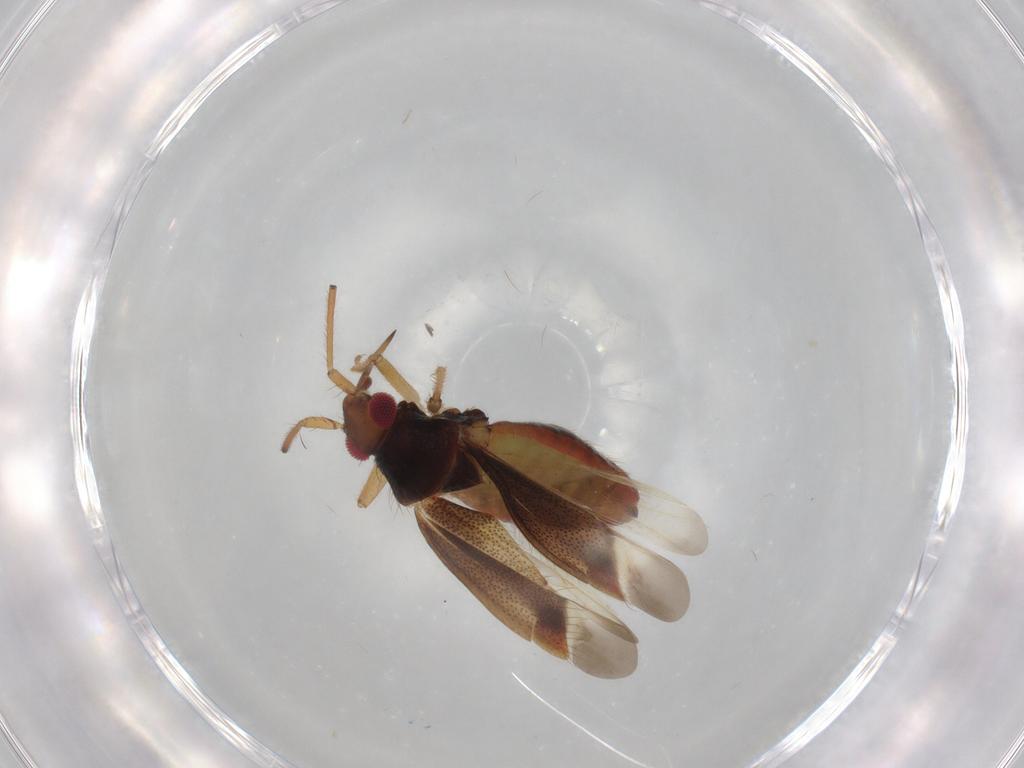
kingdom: Animalia
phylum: Arthropoda
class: Insecta
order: Hemiptera
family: Miridae
